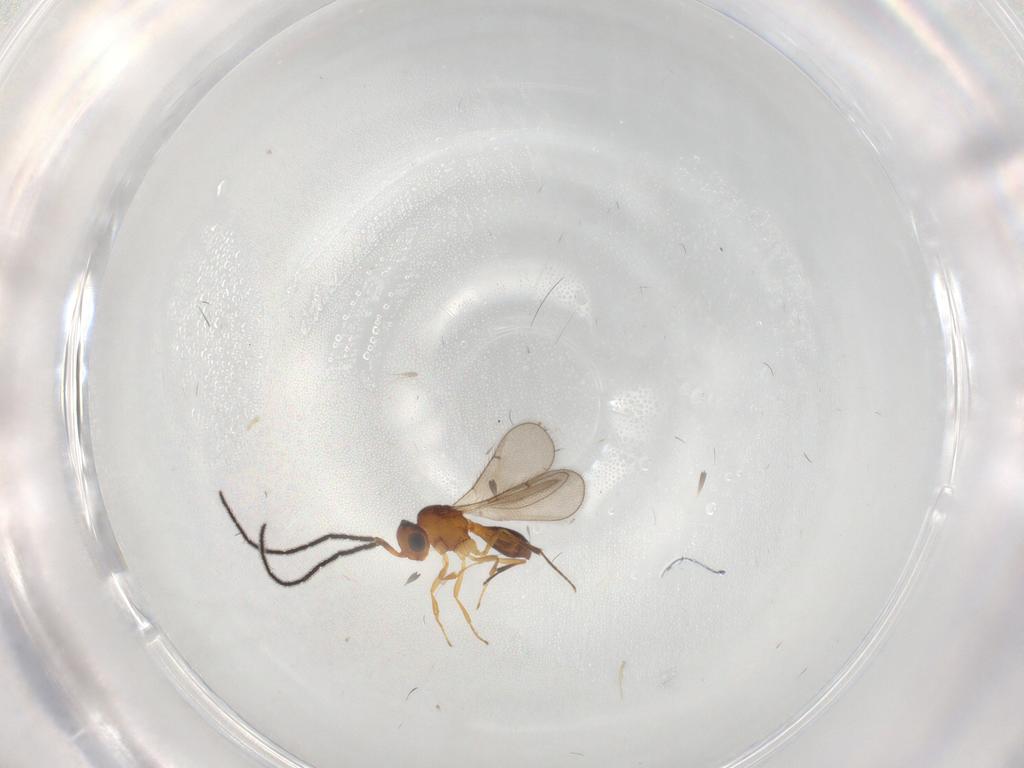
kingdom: Animalia
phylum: Arthropoda
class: Insecta
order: Hymenoptera
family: Scelionidae
